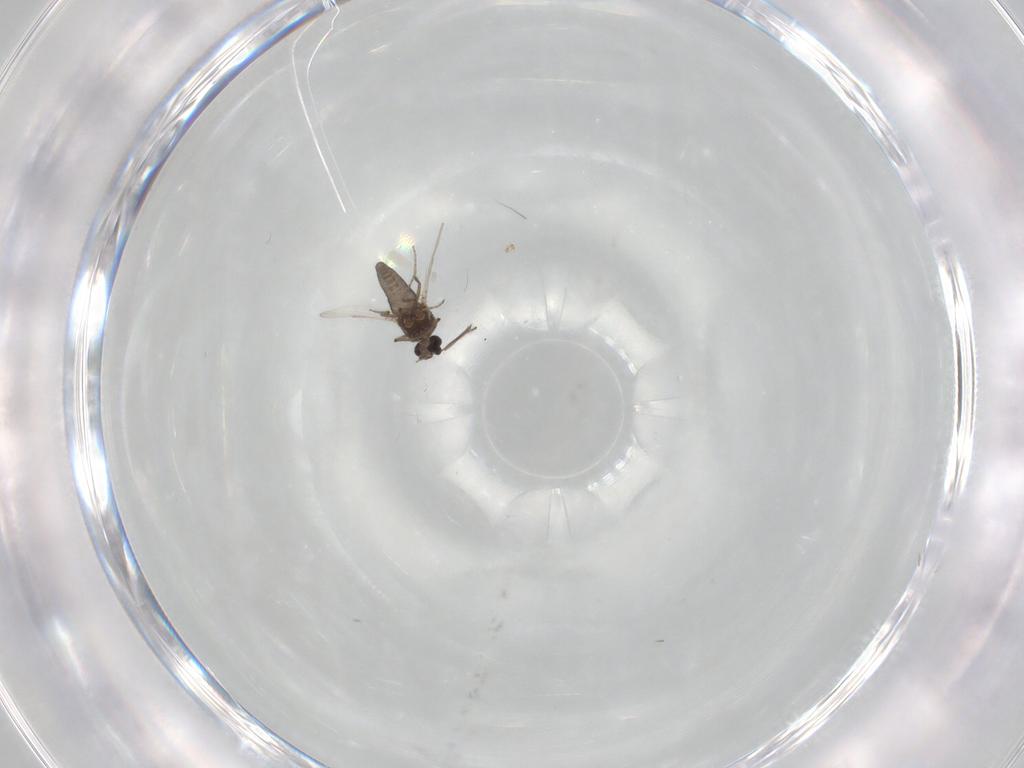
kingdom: Animalia
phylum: Arthropoda
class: Insecta
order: Diptera
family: Ceratopogonidae
